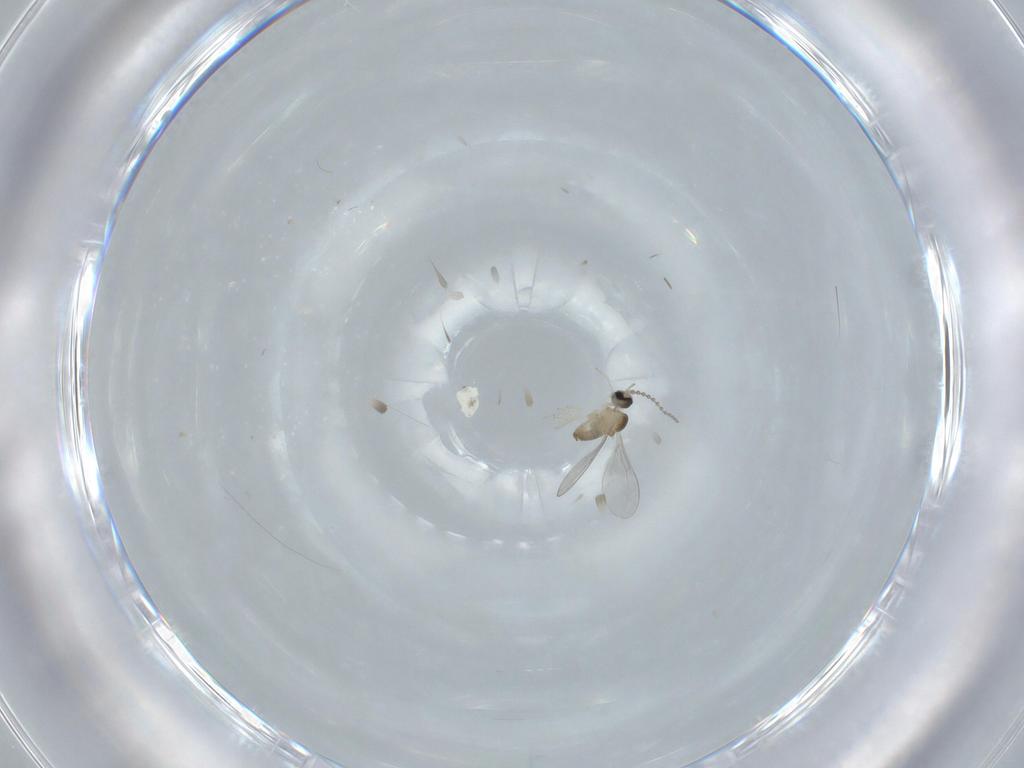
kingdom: Animalia
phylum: Arthropoda
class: Insecta
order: Diptera
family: Cecidomyiidae
